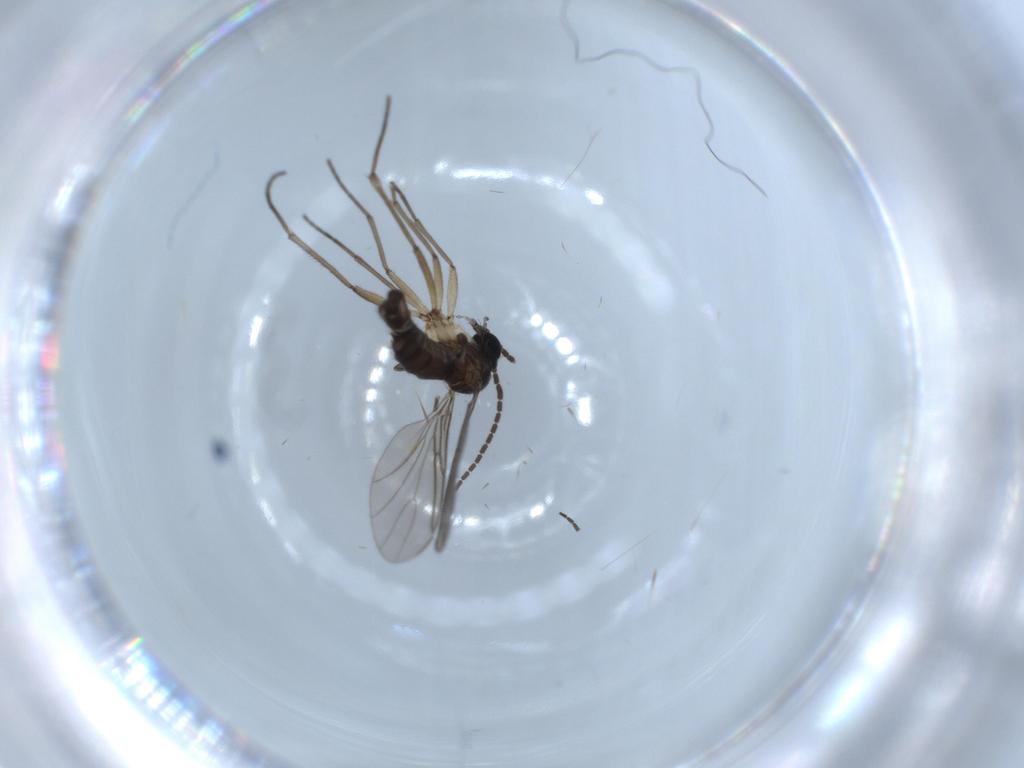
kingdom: Animalia
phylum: Arthropoda
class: Insecta
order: Diptera
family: Sciaridae
